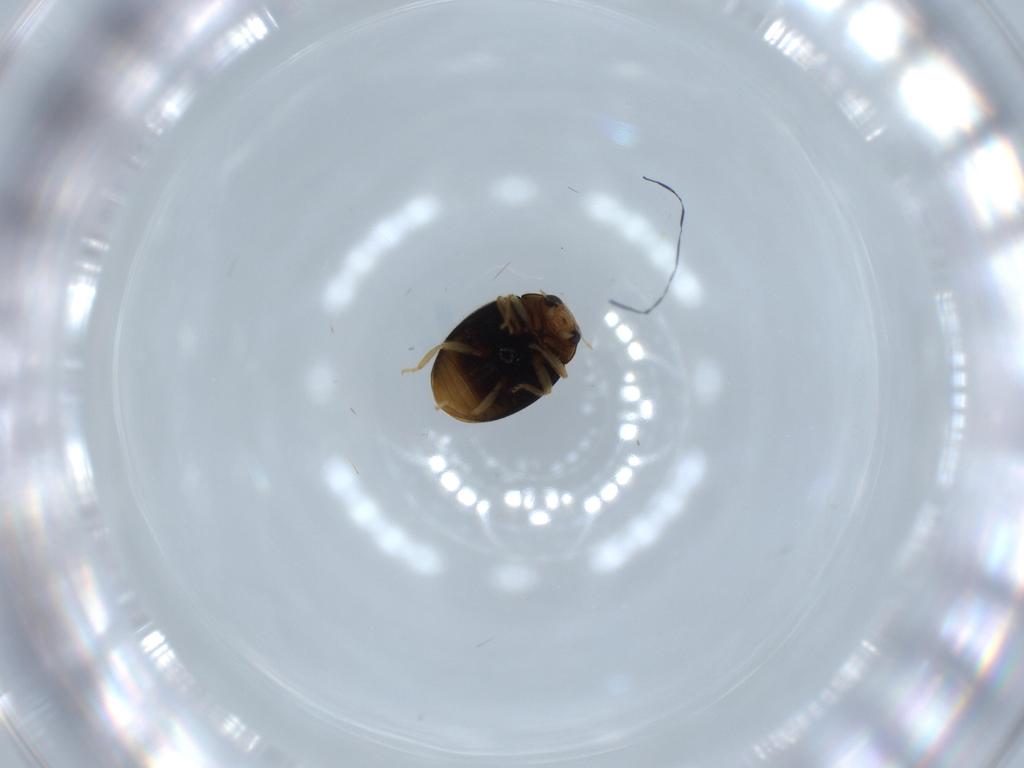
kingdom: Animalia
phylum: Arthropoda
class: Insecta
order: Coleoptera
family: Coccinellidae
